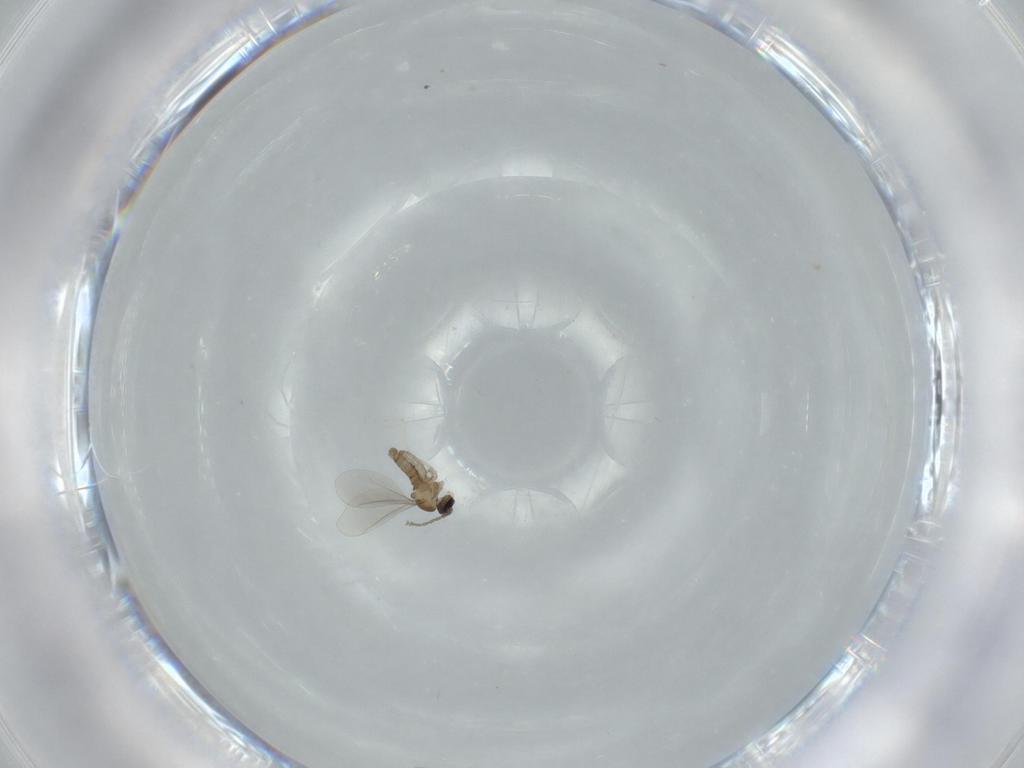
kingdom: Animalia
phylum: Arthropoda
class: Insecta
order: Diptera
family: Cecidomyiidae
